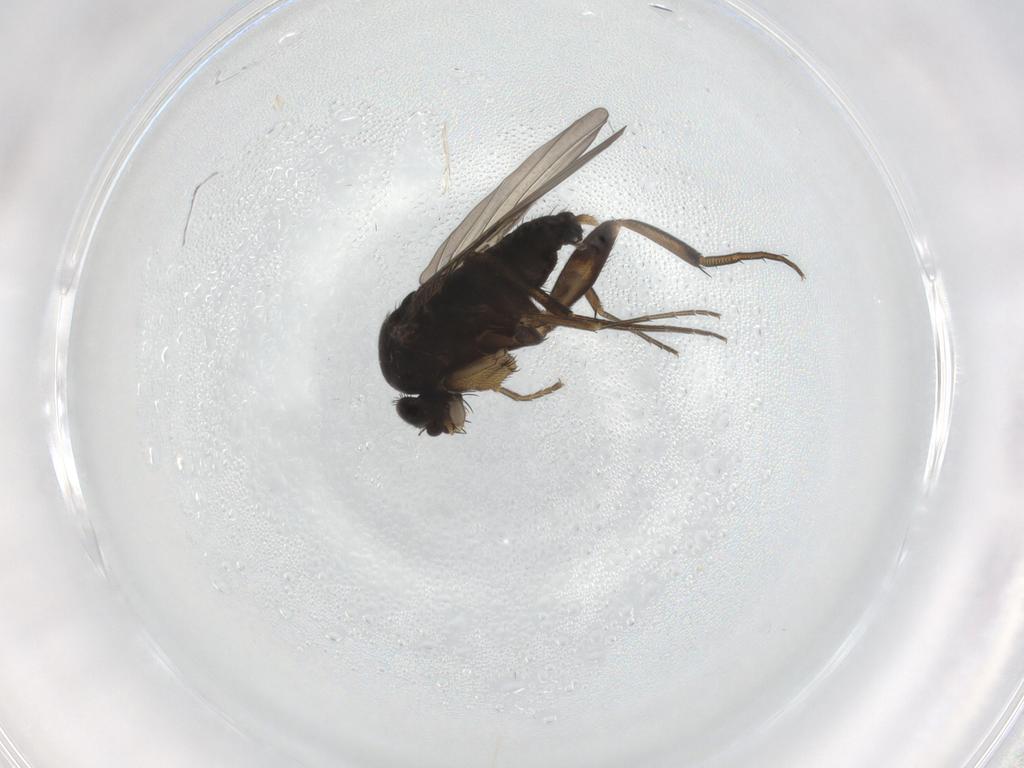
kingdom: Animalia
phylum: Arthropoda
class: Insecta
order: Diptera
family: Phoridae
